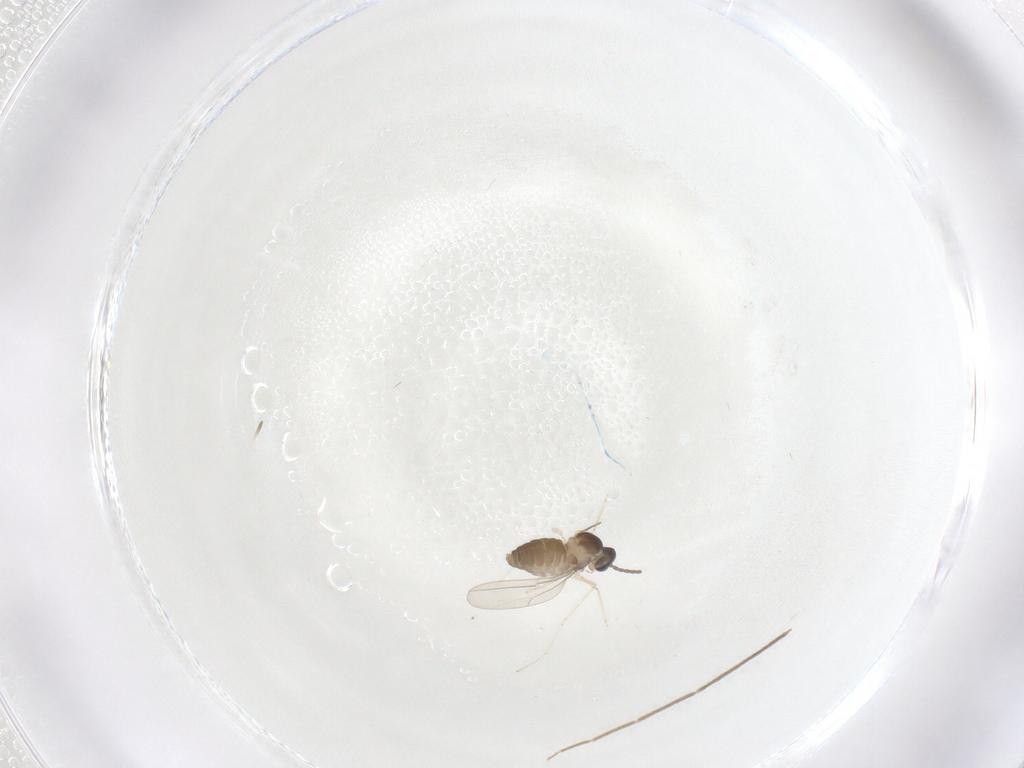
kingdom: Animalia
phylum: Arthropoda
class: Insecta
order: Diptera
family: Cecidomyiidae
